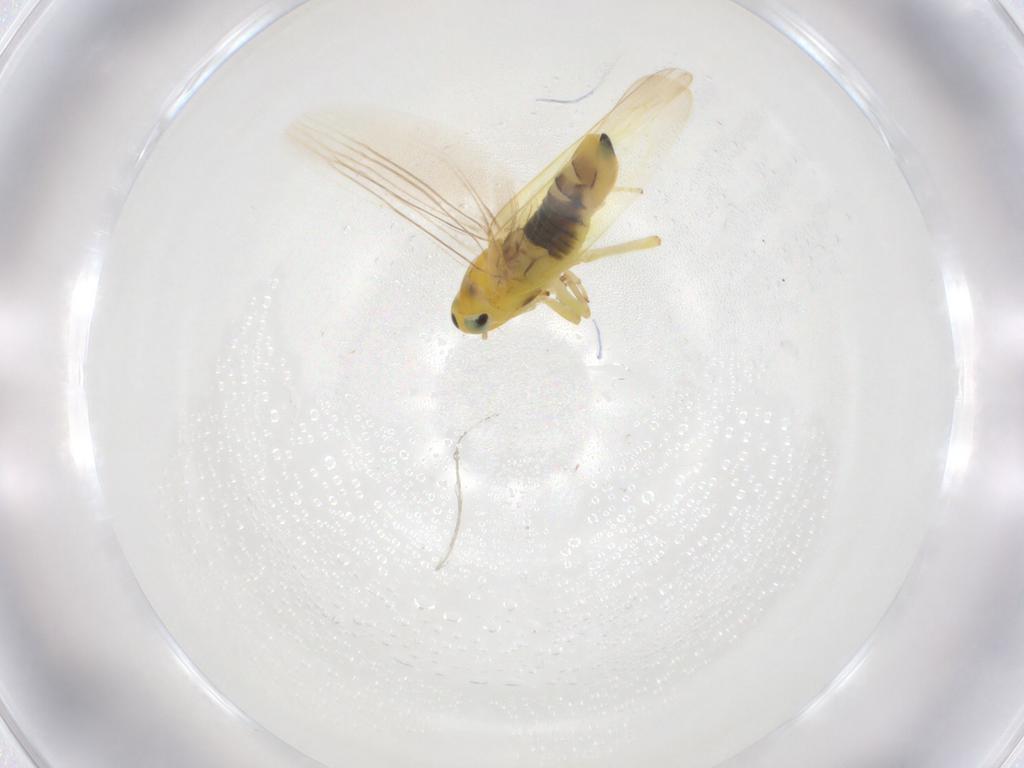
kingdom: Animalia
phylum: Arthropoda
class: Insecta
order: Hemiptera
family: Cicadellidae
